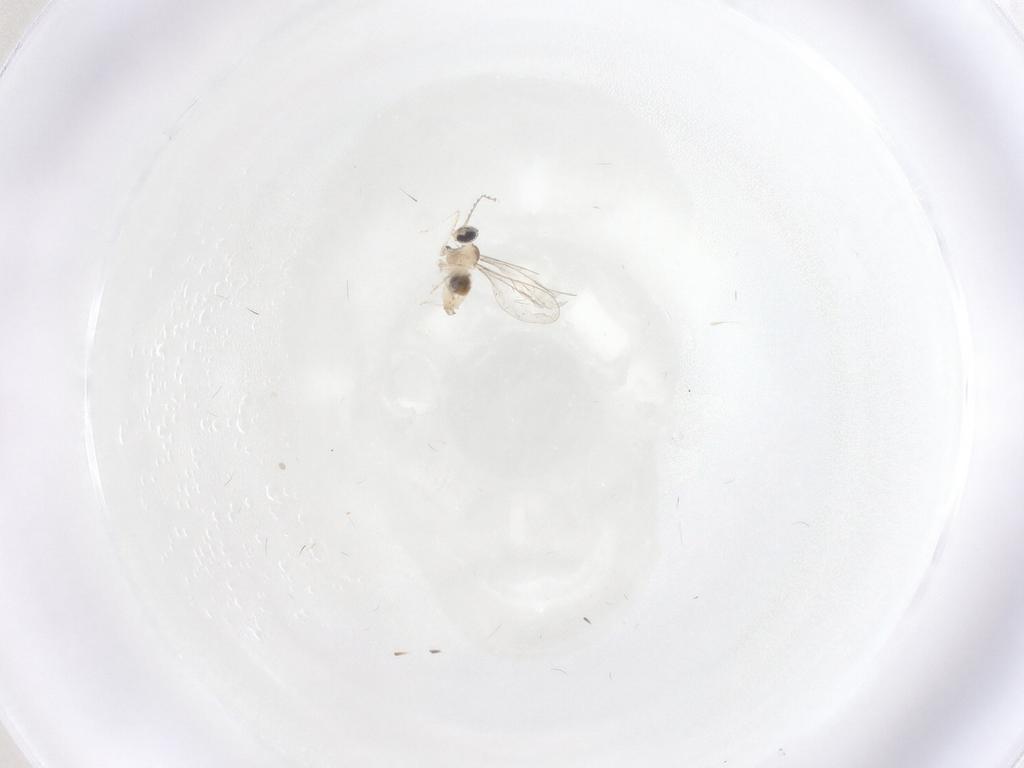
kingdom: Animalia
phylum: Arthropoda
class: Insecta
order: Diptera
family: Cecidomyiidae
